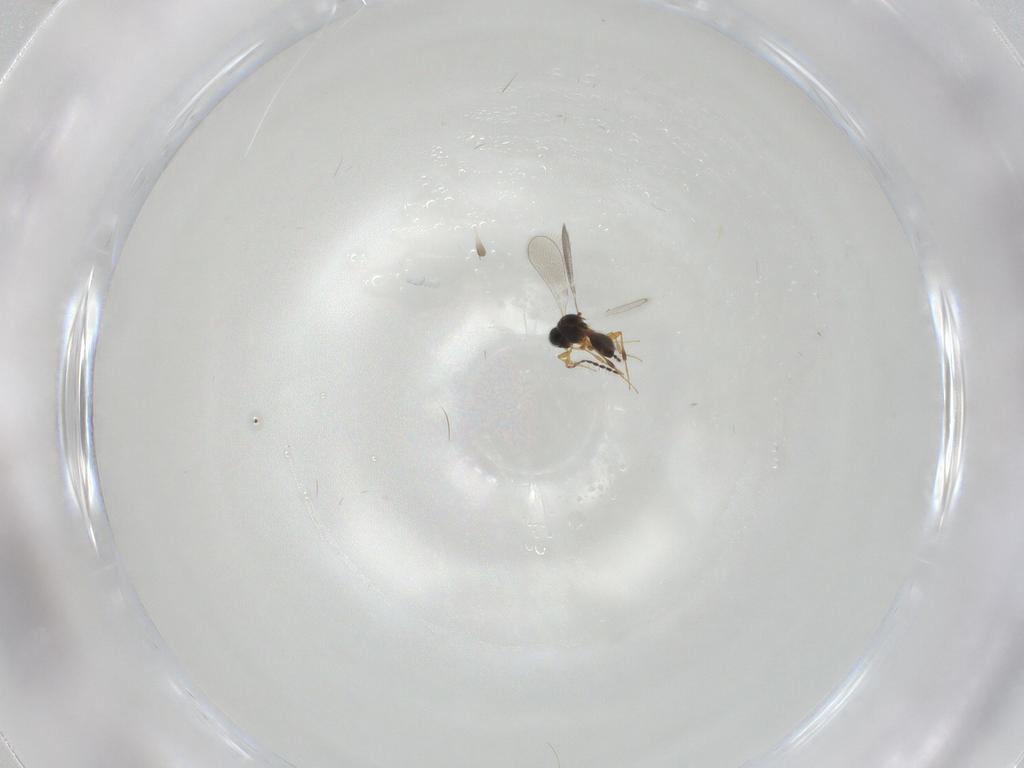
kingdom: Animalia
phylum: Arthropoda
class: Insecta
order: Hymenoptera
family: Platygastridae
